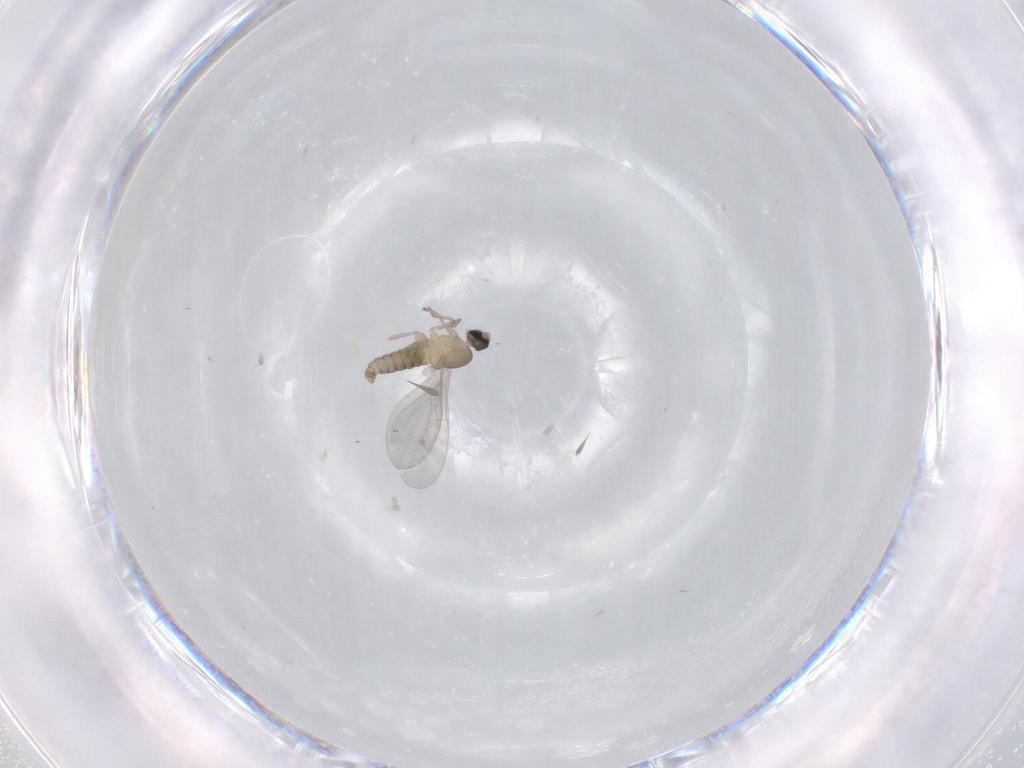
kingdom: Animalia
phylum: Arthropoda
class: Insecta
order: Diptera
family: Cecidomyiidae
